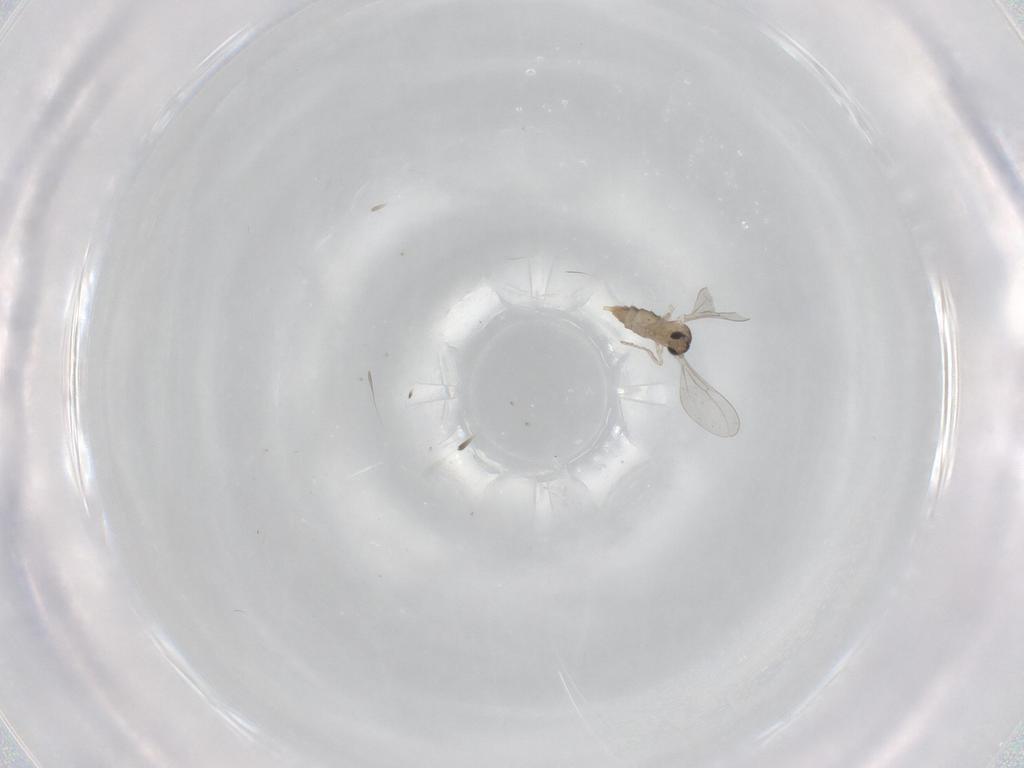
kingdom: Animalia
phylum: Arthropoda
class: Insecta
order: Diptera
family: Cecidomyiidae
